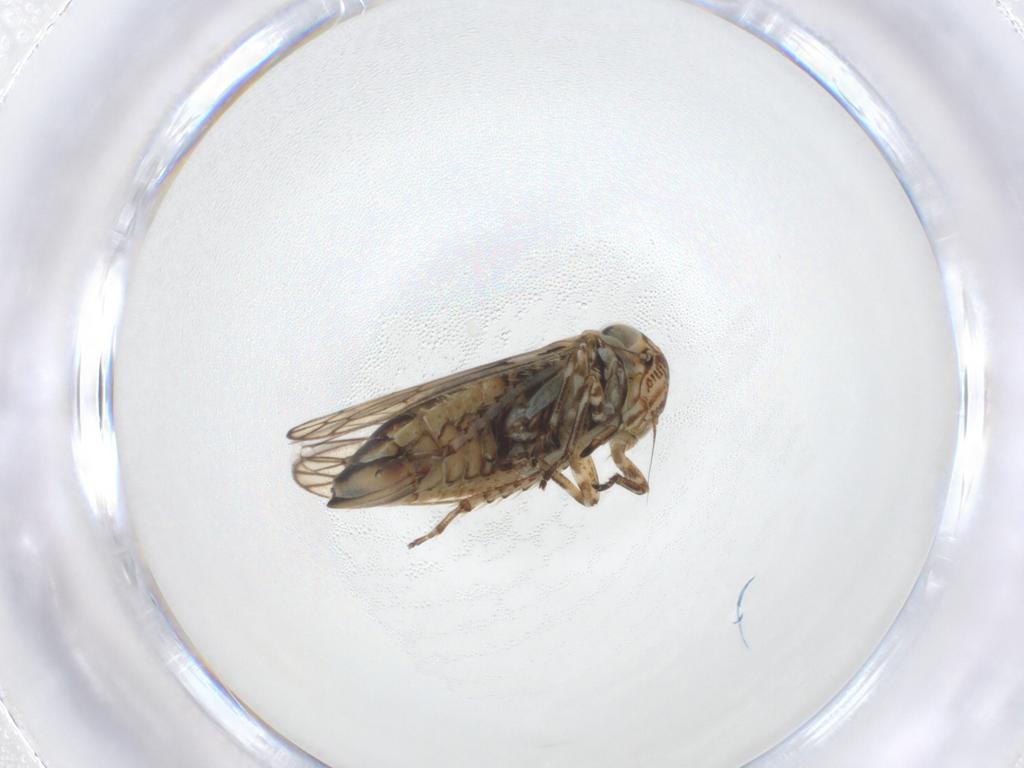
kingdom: Animalia
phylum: Arthropoda
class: Insecta
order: Hemiptera
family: Cicadellidae
